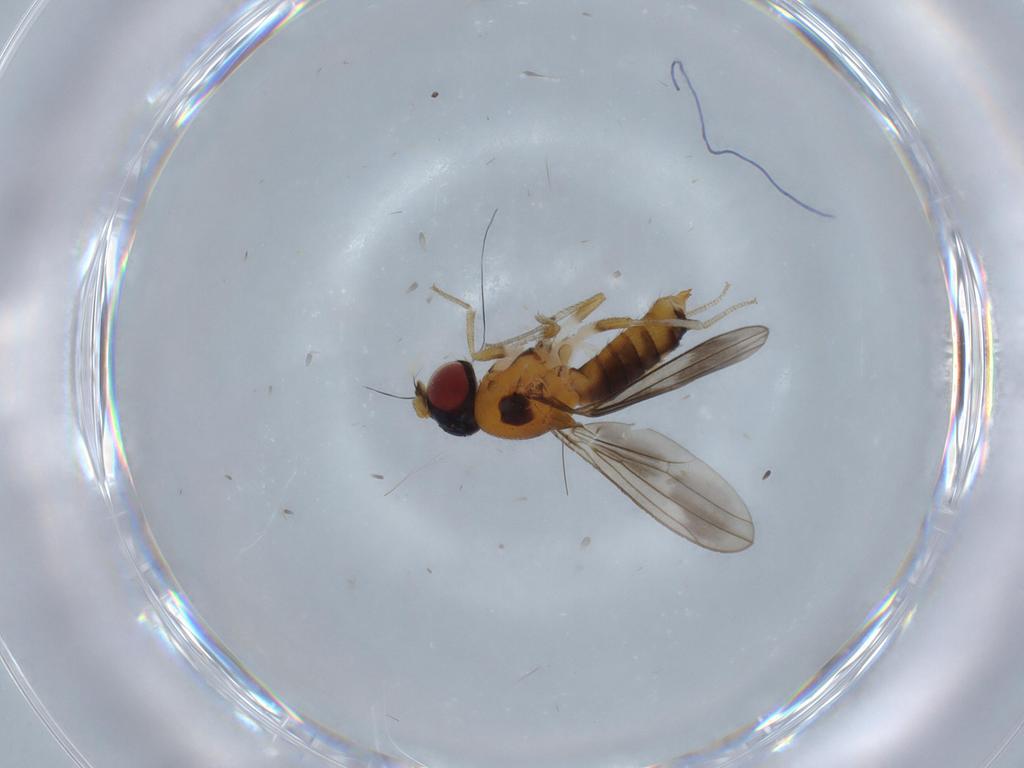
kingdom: Animalia
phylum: Arthropoda
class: Insecta
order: Diptera
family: Drosophilidae
